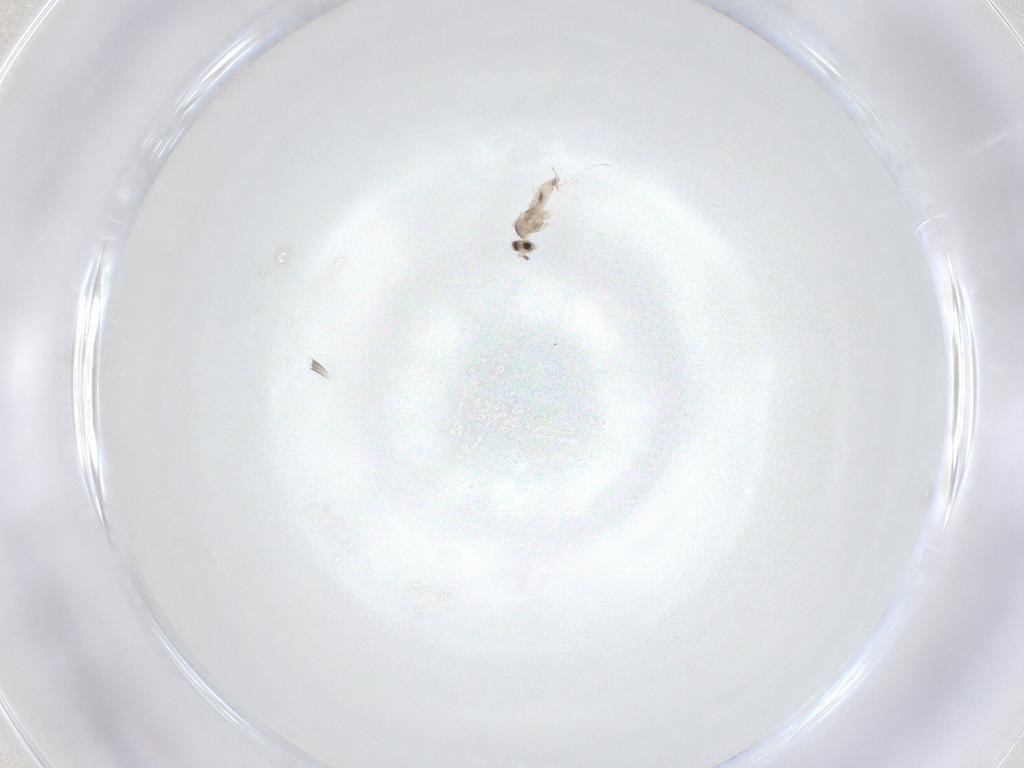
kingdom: Animalia
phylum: Arthropoda
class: Insecta
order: Diptera
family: Cecidomyiidae
